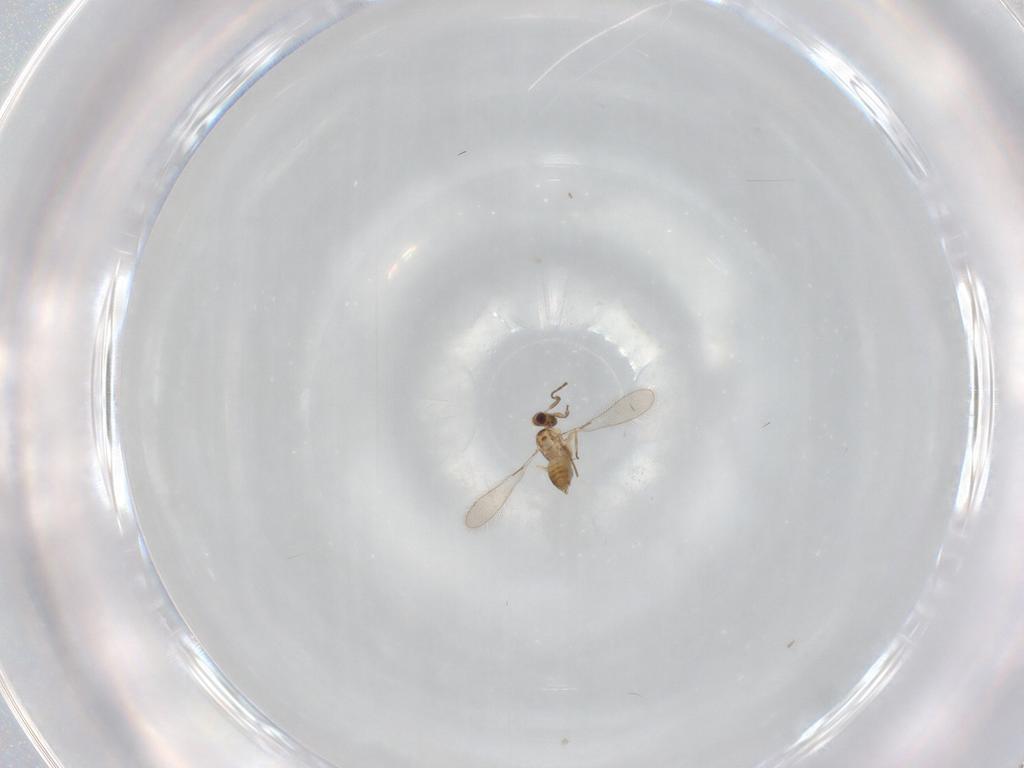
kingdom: Animalia
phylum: Arthropoda
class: Insecta
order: Hymenoptera
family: Mymaridae
